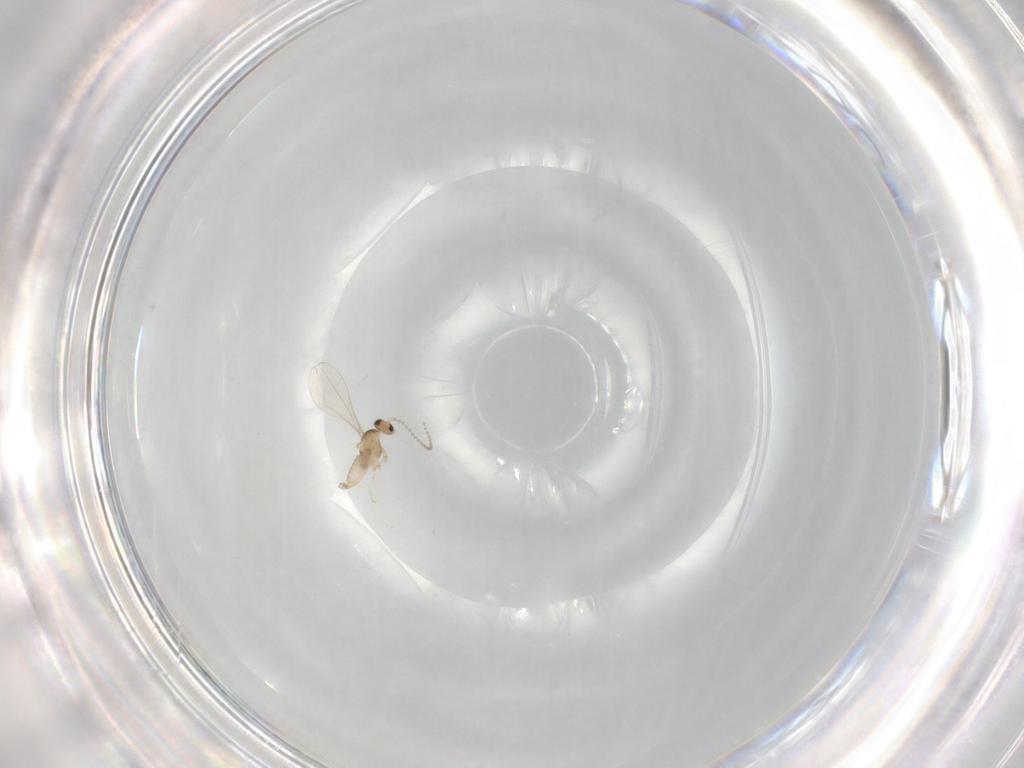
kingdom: Animalia
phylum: Arthropoda
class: Insecta
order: Diptera
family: Cecidomyiidae
